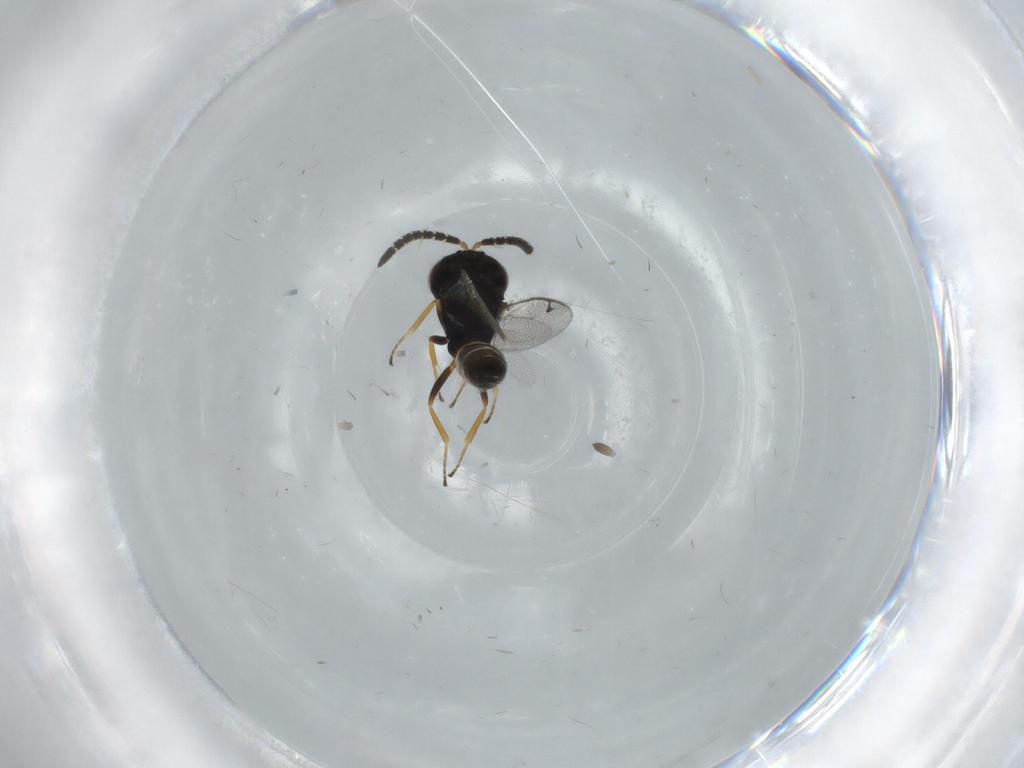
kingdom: Animalia
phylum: Arthropoda
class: Insecta
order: Hymenoptera
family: Agaonidae
